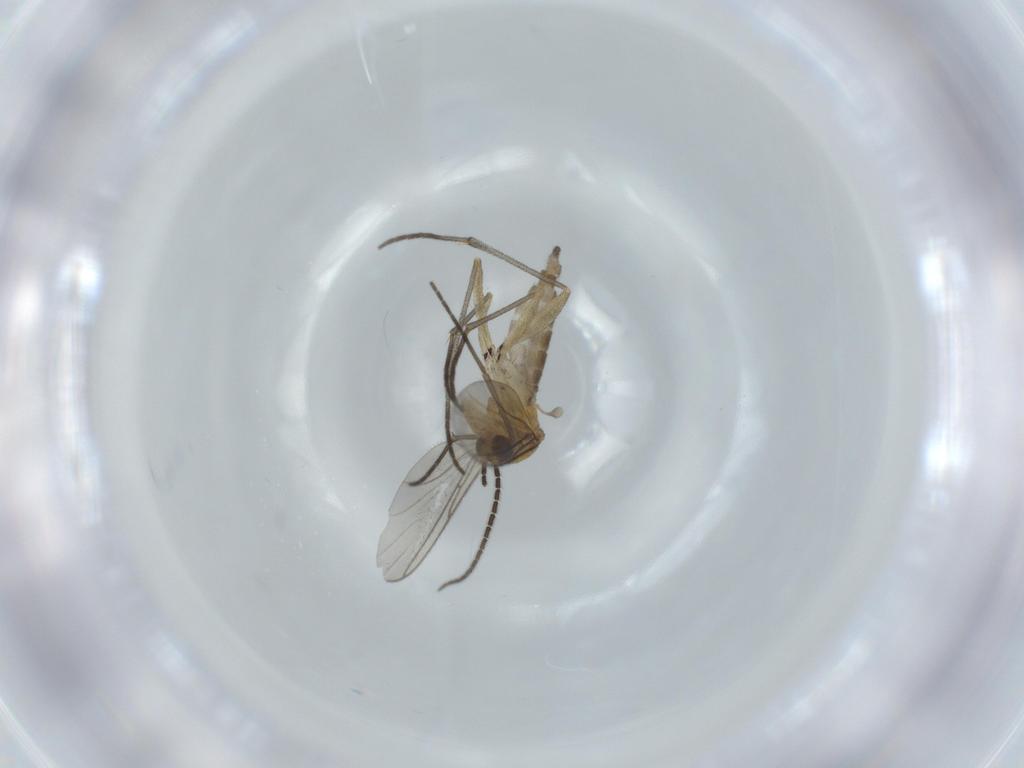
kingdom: Animalia
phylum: Arthropoda
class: Insecta
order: Diptera
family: Sciaridae
